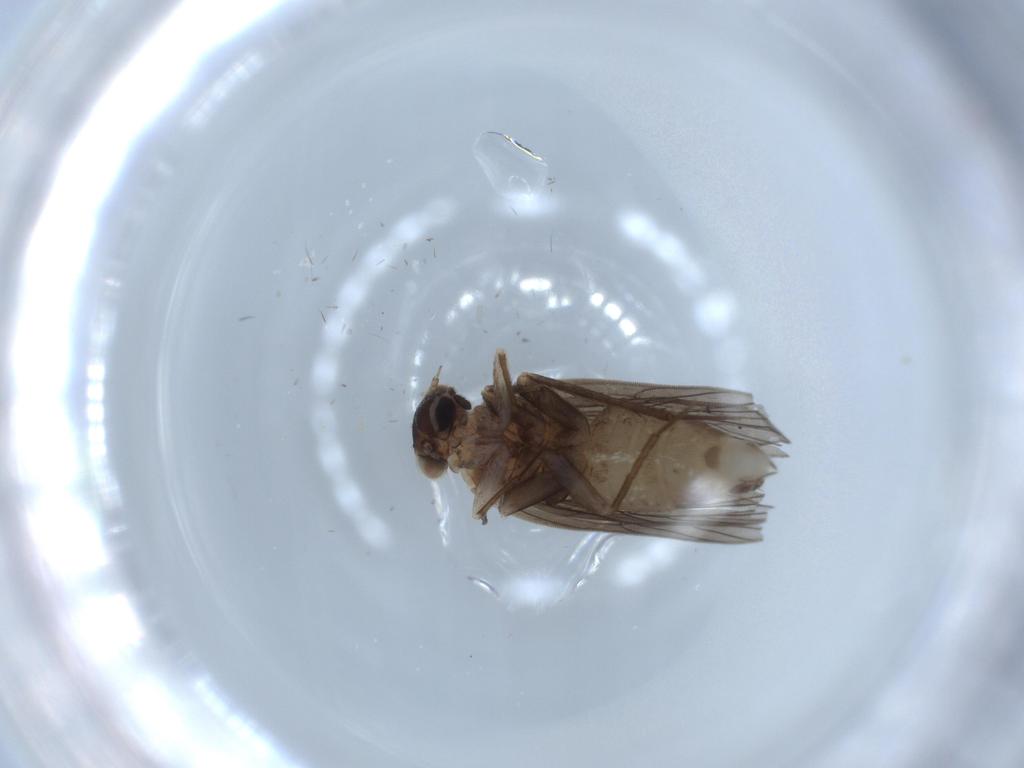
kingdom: Animalia
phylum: Arthropoda
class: Insecta
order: Psocodea
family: Lepidopsocidae
